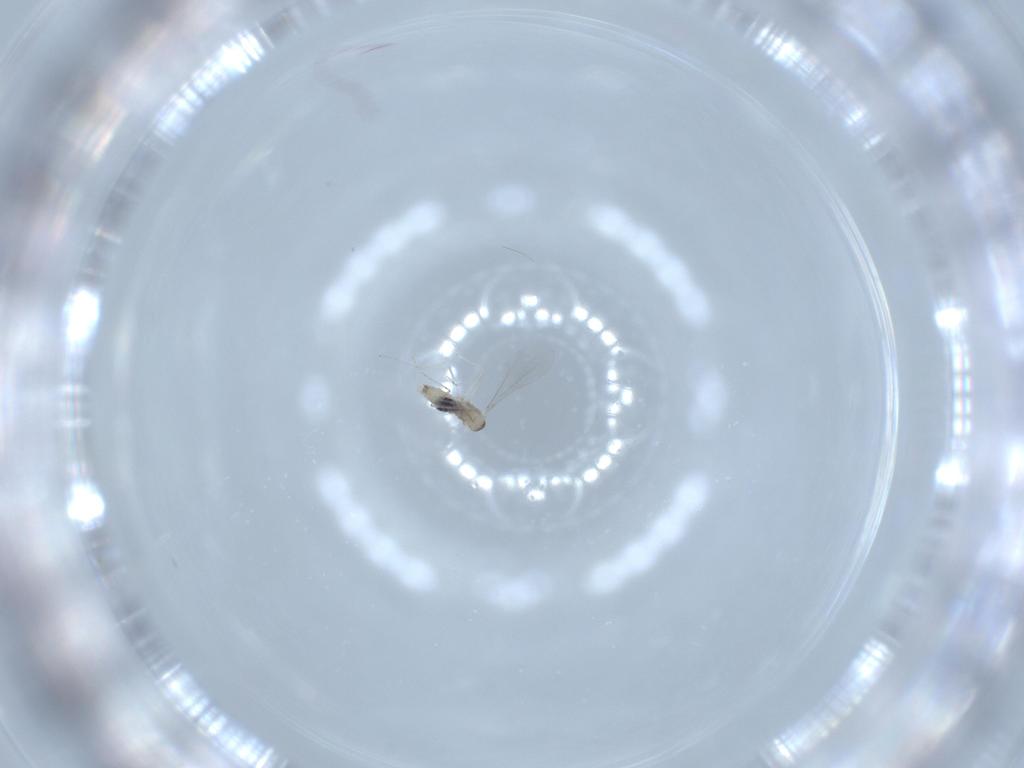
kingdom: Animalia
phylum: Arthropoda
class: Insecta
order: Diptera
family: Cecidomyiidae
